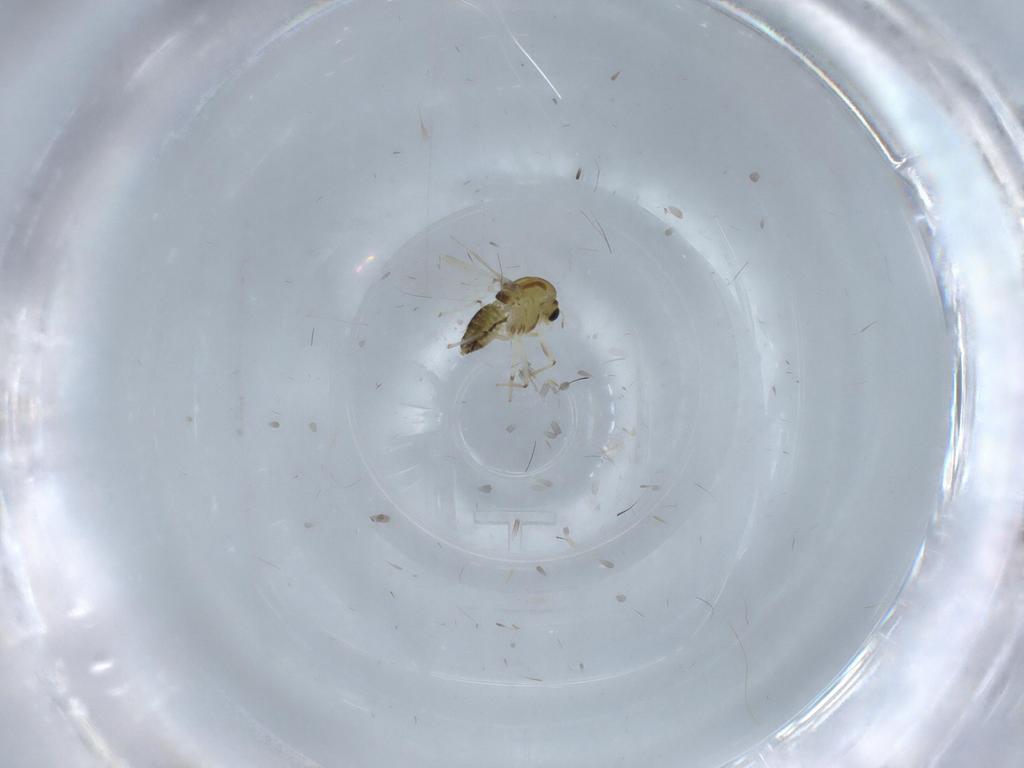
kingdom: Animalia
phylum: Arthropoda
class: Insecta
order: Diptera
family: Chironomidae
